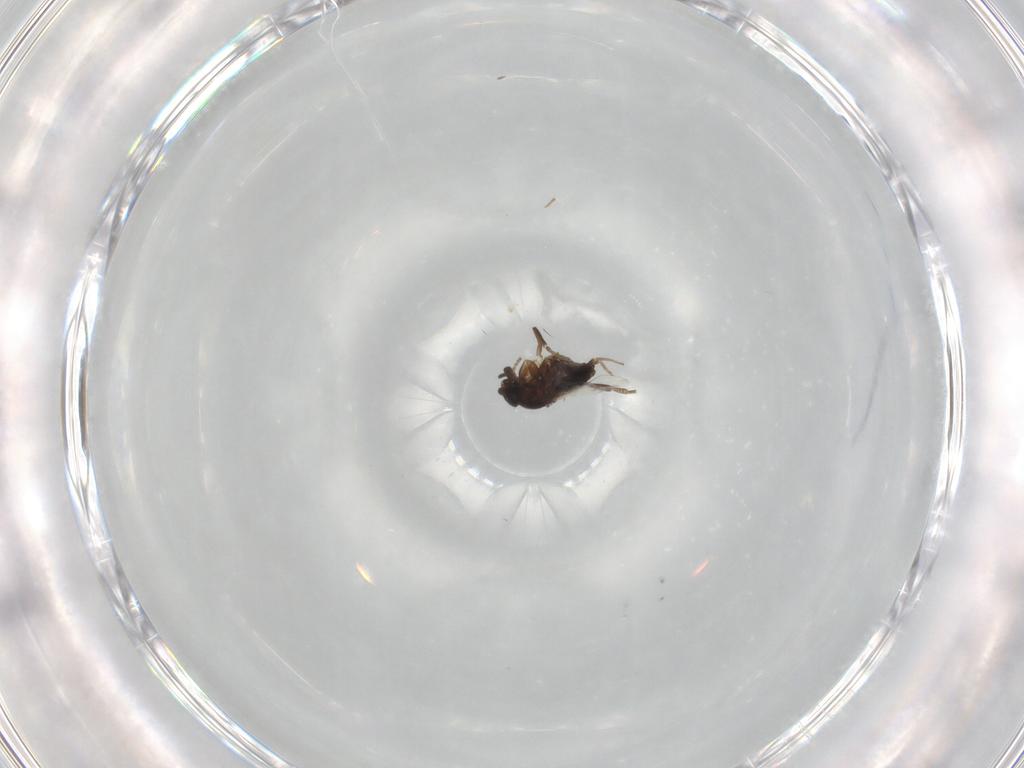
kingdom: Animalia
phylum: Arthropoda
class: Insecta
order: Diptera
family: Phoridae
